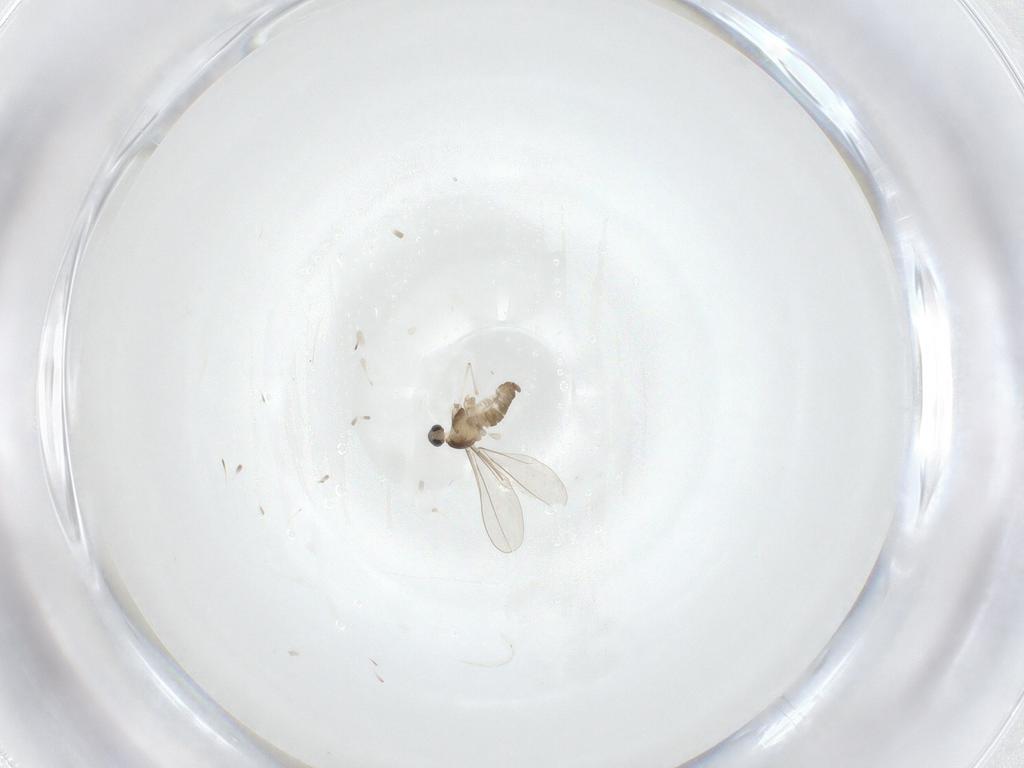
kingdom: Animalia
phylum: Arthropoda
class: Insecta
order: Diptera
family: Cecidomyiidae
